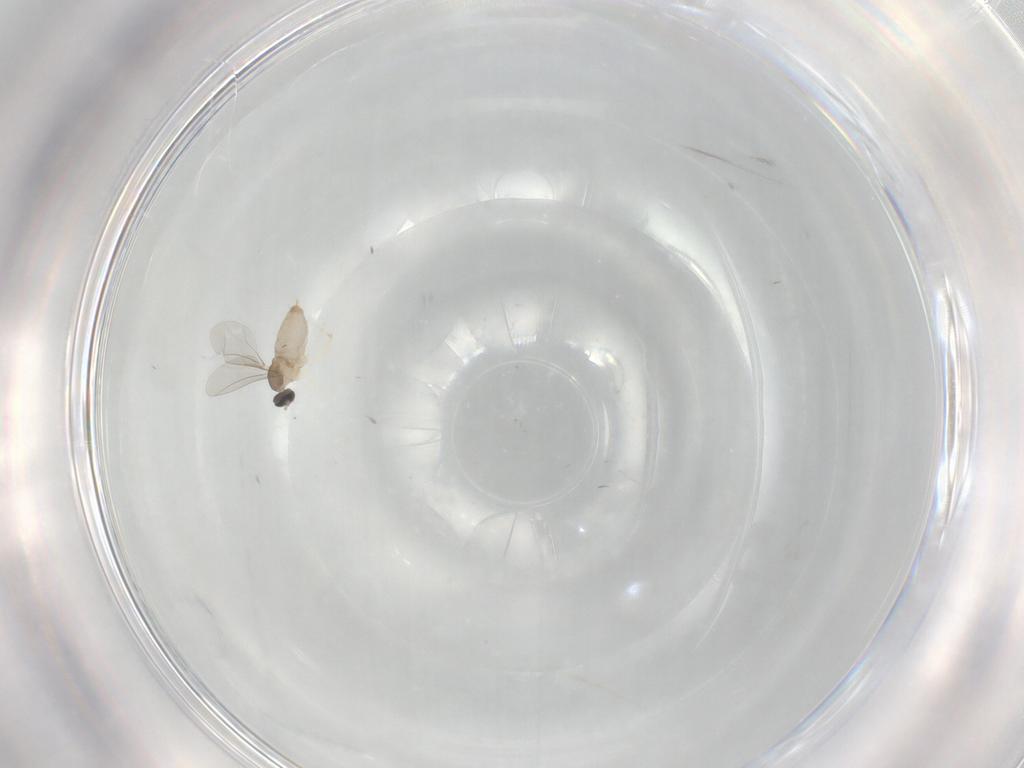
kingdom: Animalia
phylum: Arthropoda
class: Insecta
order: Diptera
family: Cecidomyiidae
